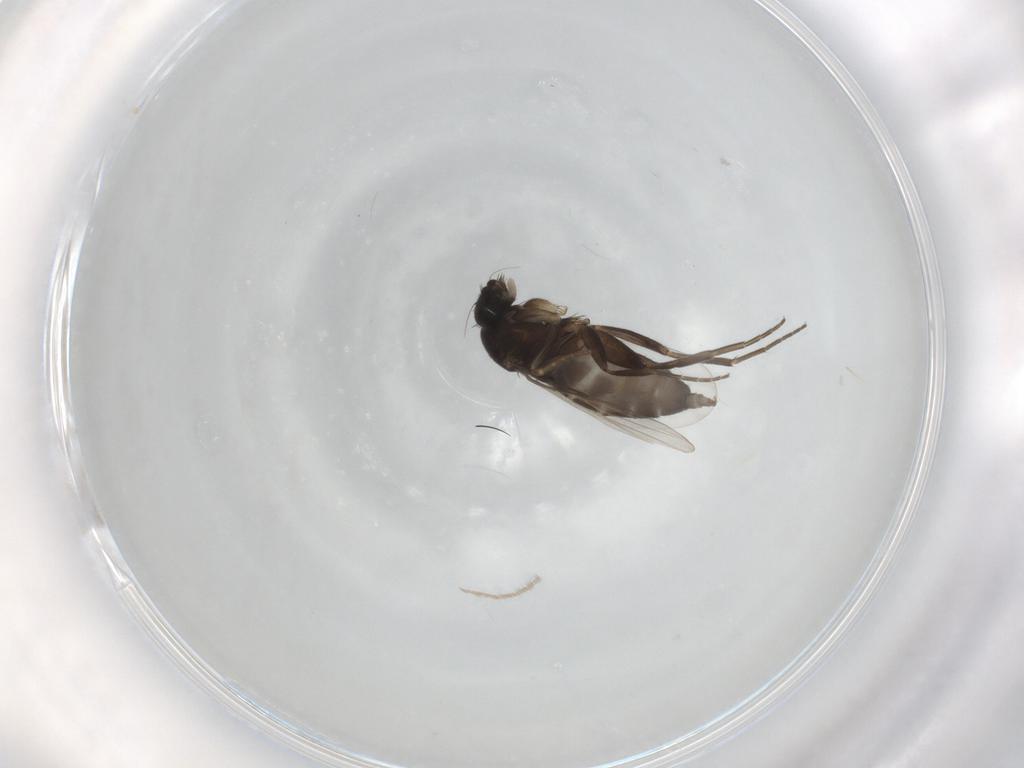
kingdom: Animalia
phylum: Arthropoda
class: Insecta
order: Diptera
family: Phoridae
